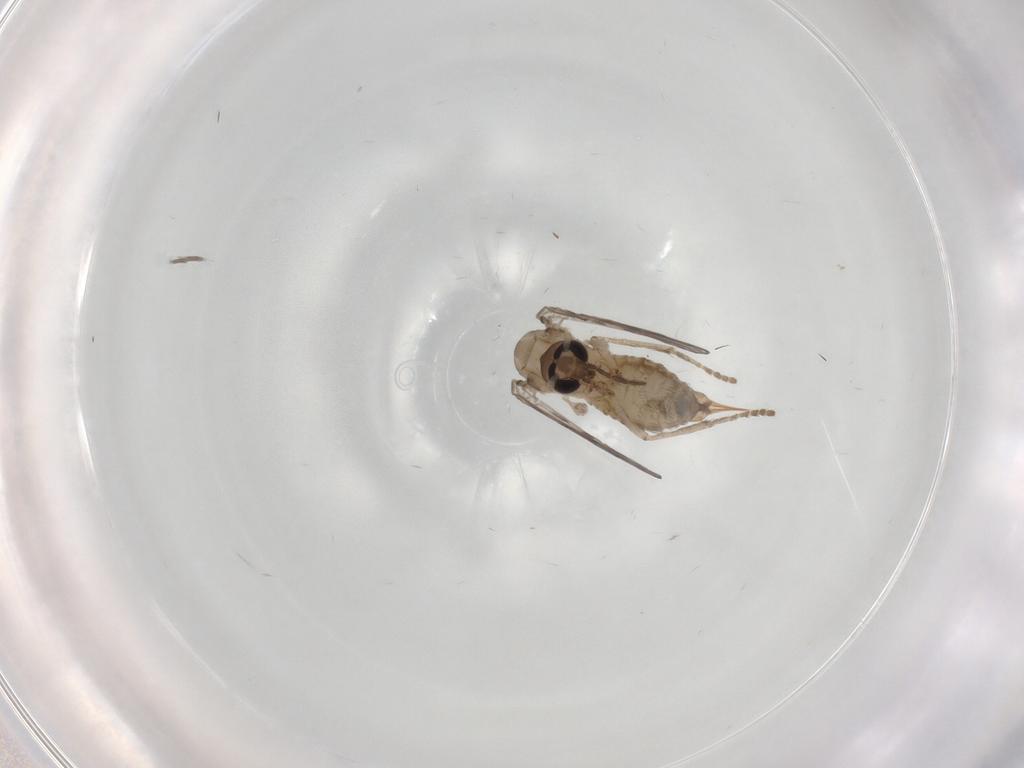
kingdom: Animalia
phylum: Arthropoda
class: Insecta
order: Diptera
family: Psychodidae
